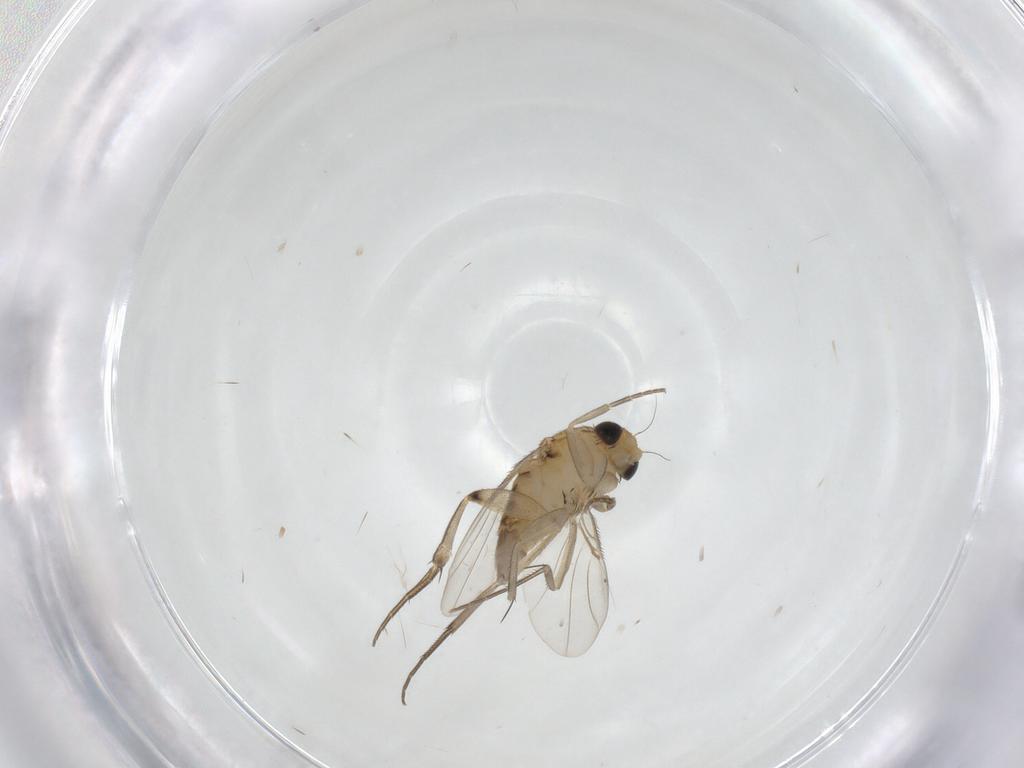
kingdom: Animalia
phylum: Arthropoda
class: Insecta
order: Diptera
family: Phoridae
